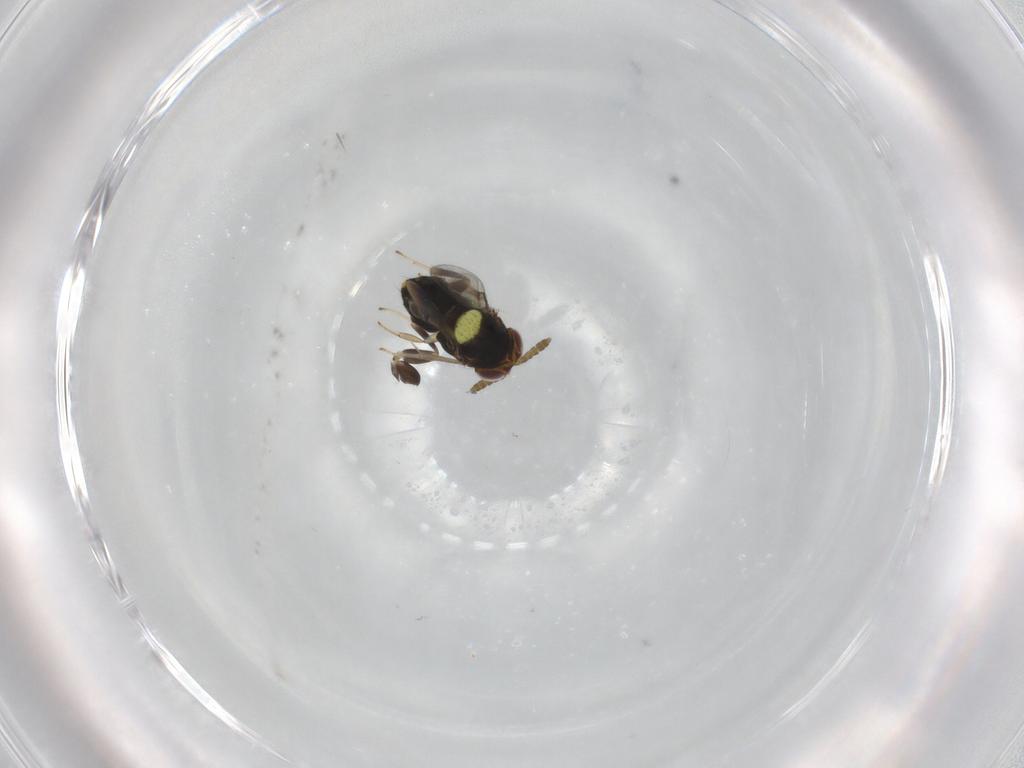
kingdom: Animalia
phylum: Arthropoda
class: Insecta
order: Hymenoptera
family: Aphelinidae
